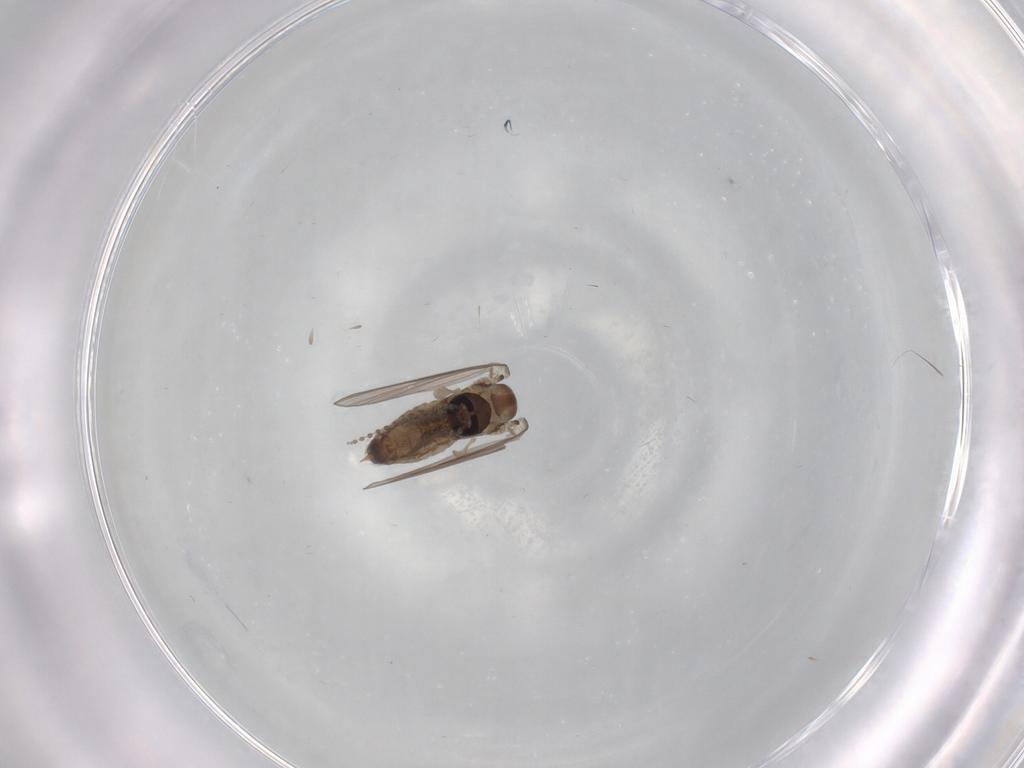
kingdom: Animalia
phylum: Arthropoda
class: Insecta
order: Diptera
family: Psychodidae
